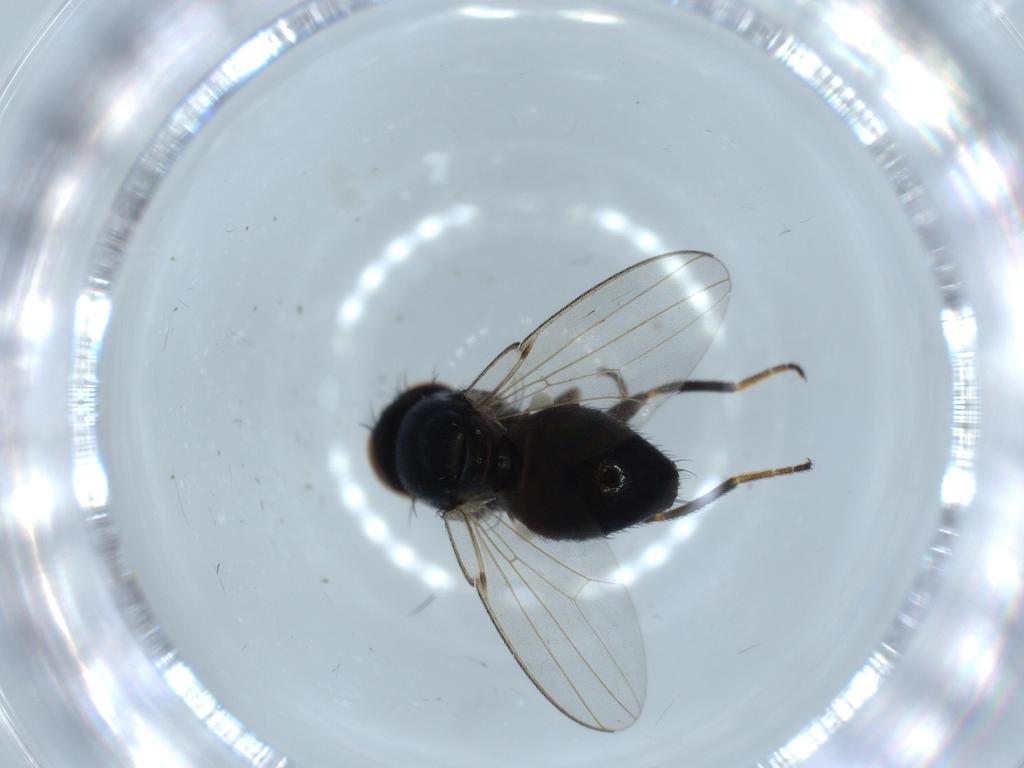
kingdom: Animalia
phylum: Arthropoda
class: Insecta
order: Diptera
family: Milichiidae
